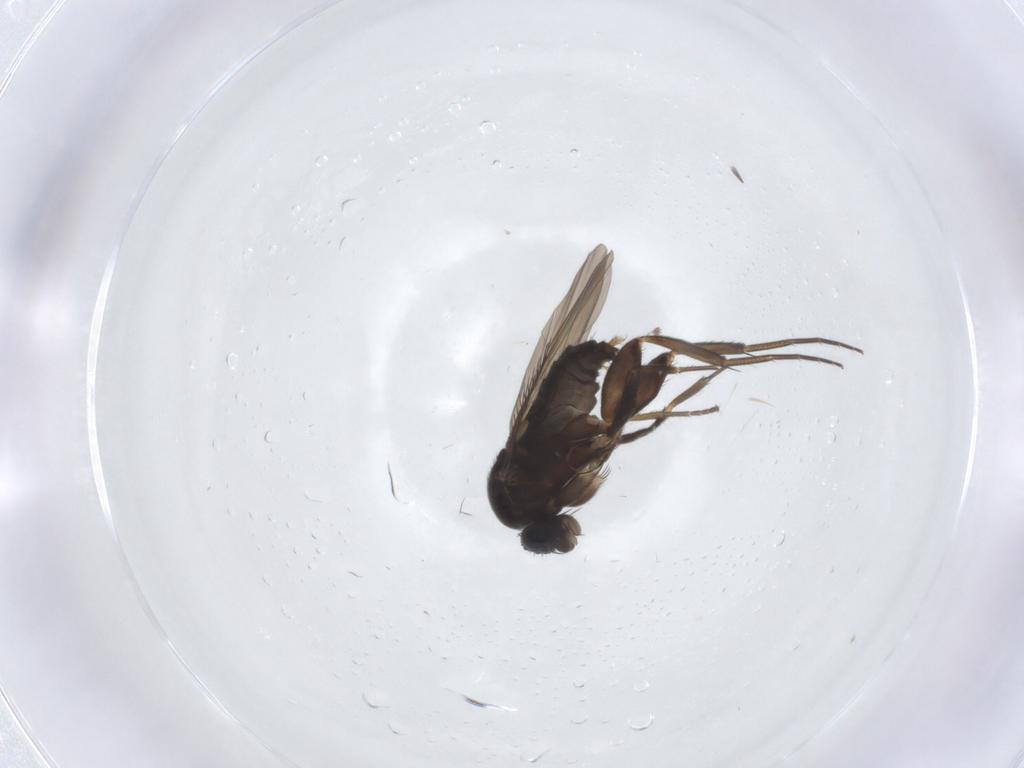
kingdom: Animalia
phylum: Arthropoda
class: Insecta
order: Diptera
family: Phoridae
